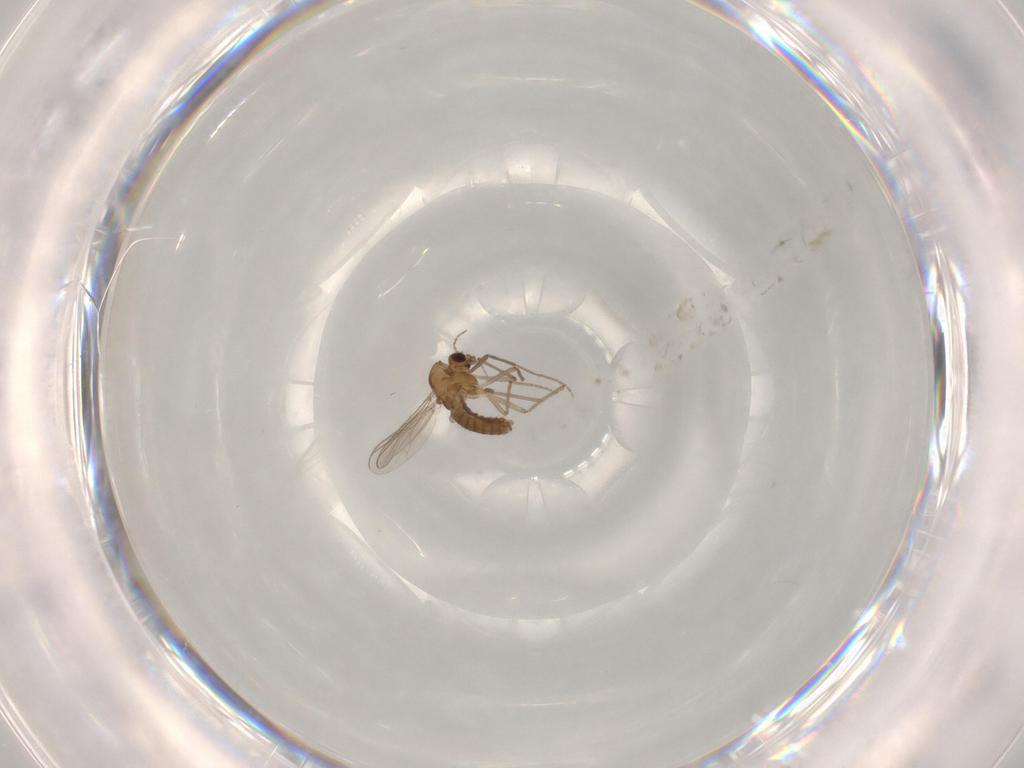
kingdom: Animalia
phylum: Arthropoda
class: Insecta
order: Diptera
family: Chironomidae
